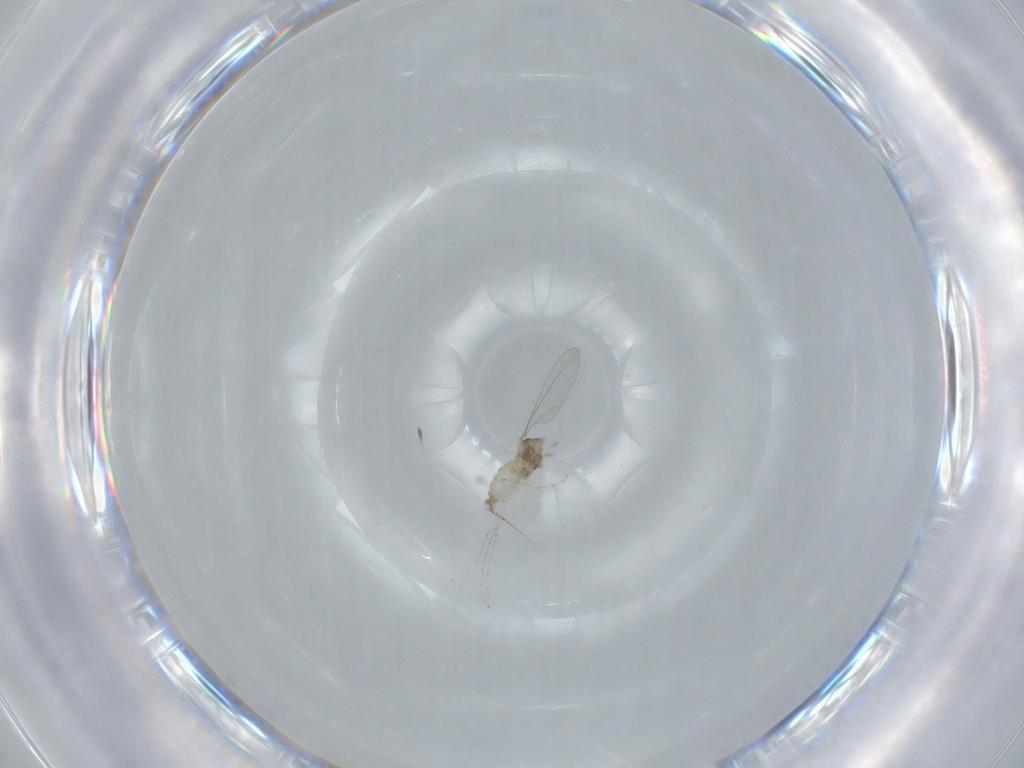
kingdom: Animalia
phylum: Arthropoda
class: Insecta
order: Diptera
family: Cecidomyiidae
